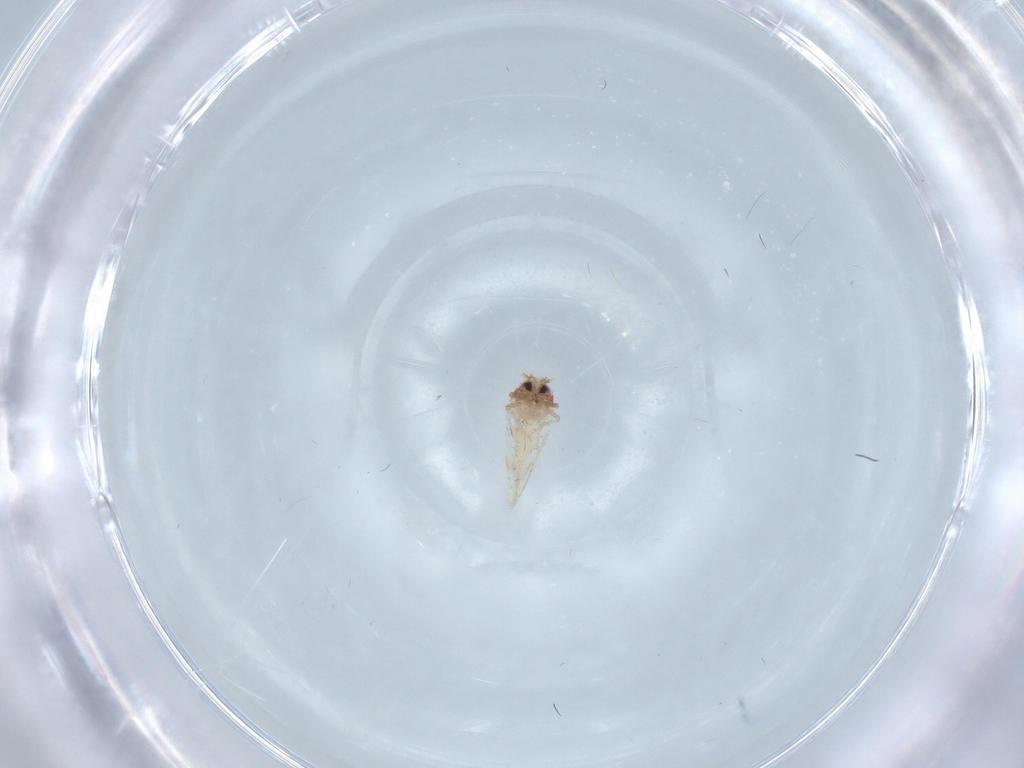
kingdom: Animalia
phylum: Arthropoda
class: Insecta
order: Hemiptera
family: Aleyrodidae
